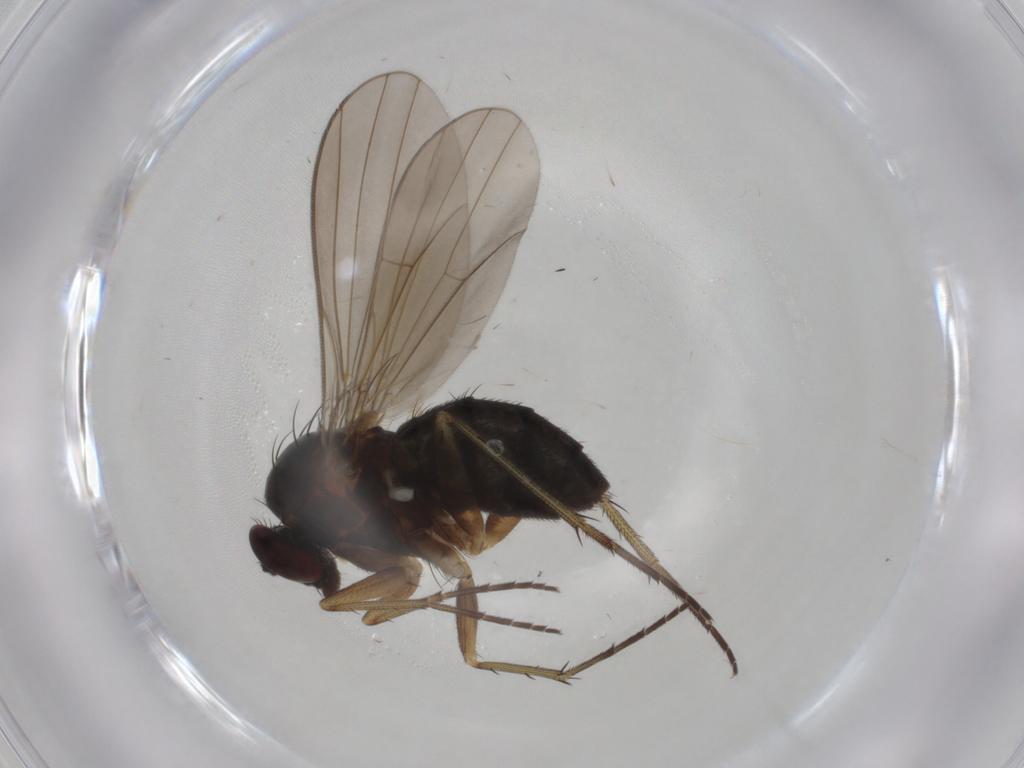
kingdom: Animalia
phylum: Arthropoda
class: Insecta
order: Diptera
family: Dolichopodidae
